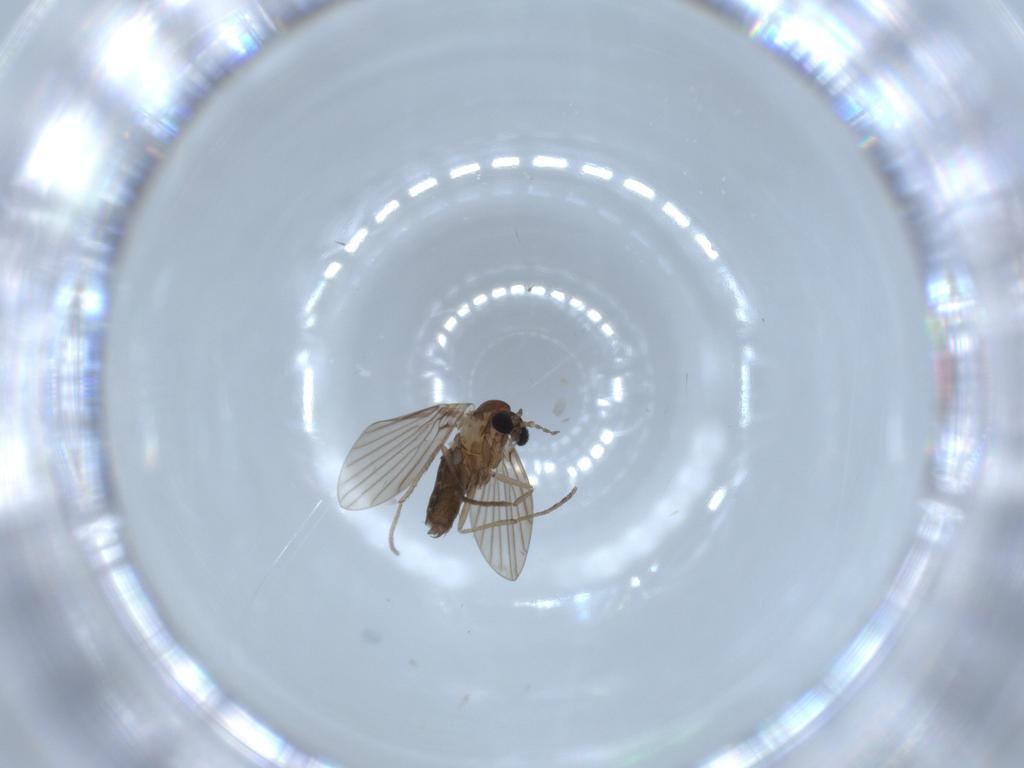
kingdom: Animalia
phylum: Arthropoda
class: Insecta
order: Diptera
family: Psychodidae
